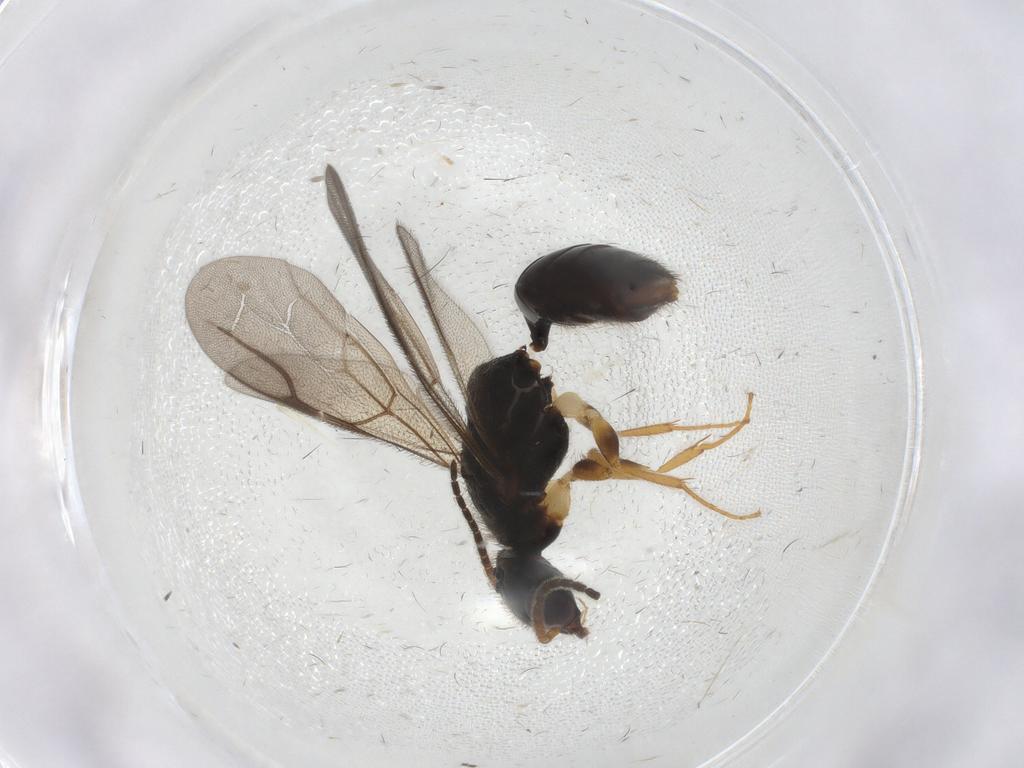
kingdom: Animalia
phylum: Arthropoda
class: Insecta
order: Hymenoptera
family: Bethylidae
